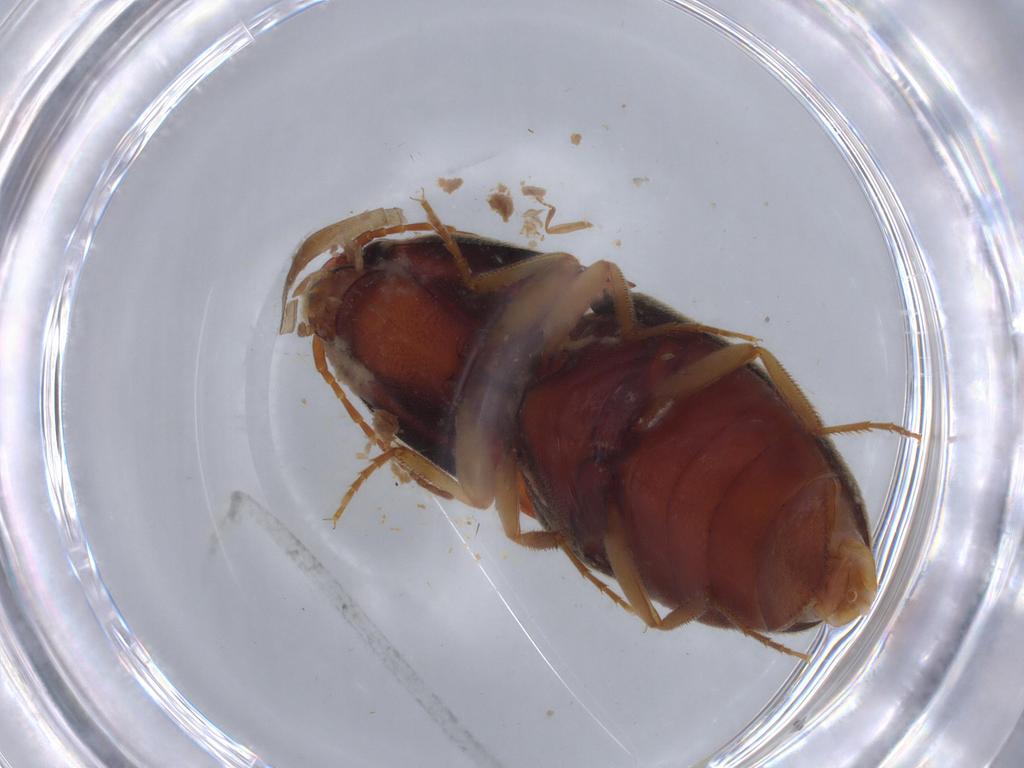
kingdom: Animalia
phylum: Arthropoda
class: Insecta
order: Coleoptera
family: Elateridae
